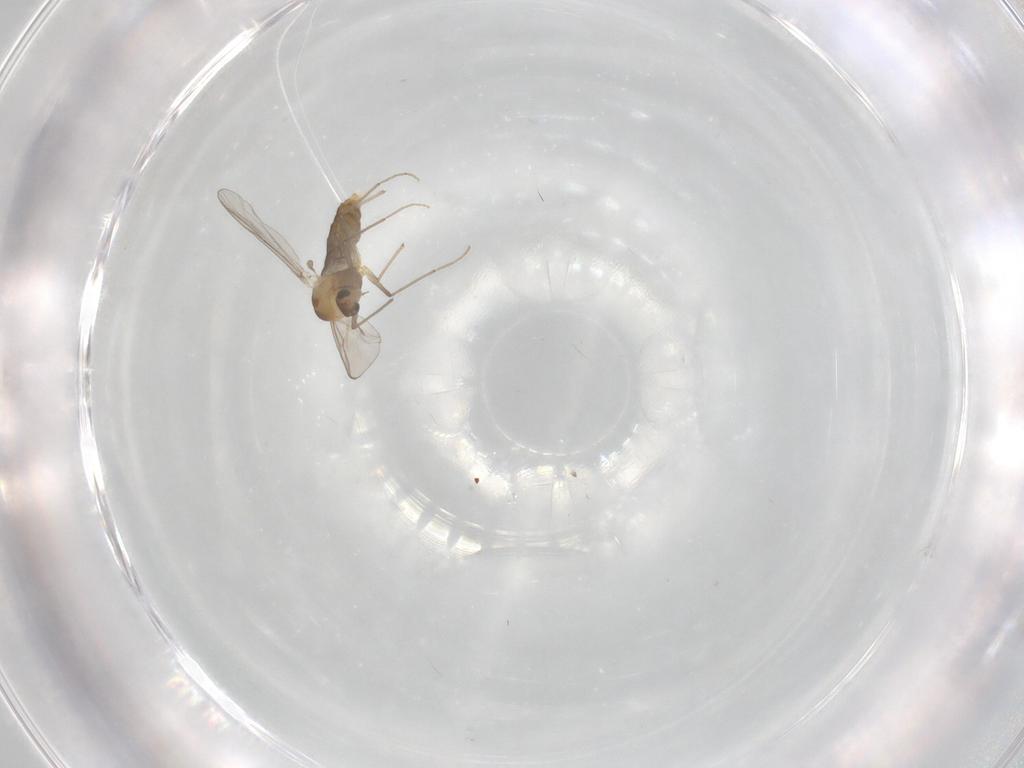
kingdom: Animalia
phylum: Arthropoda
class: Insecta
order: Diptera
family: Chironomidae
